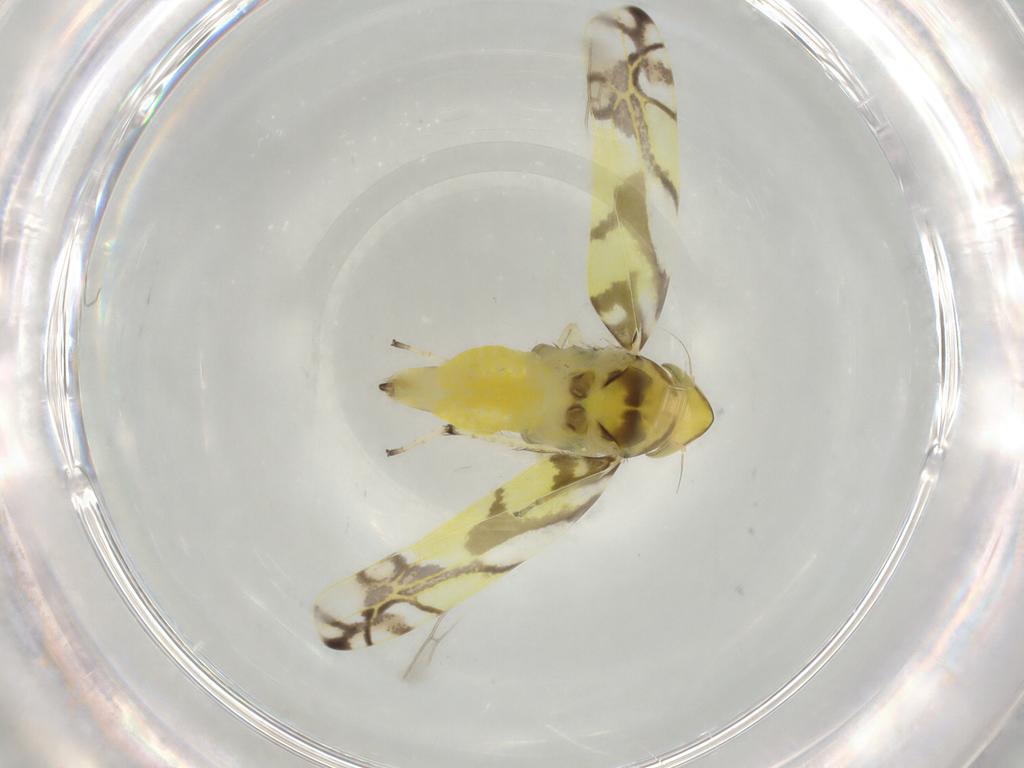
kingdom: Animalia
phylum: Arthropoda
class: Insecta
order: Hemiptera
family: Cicadellidae
